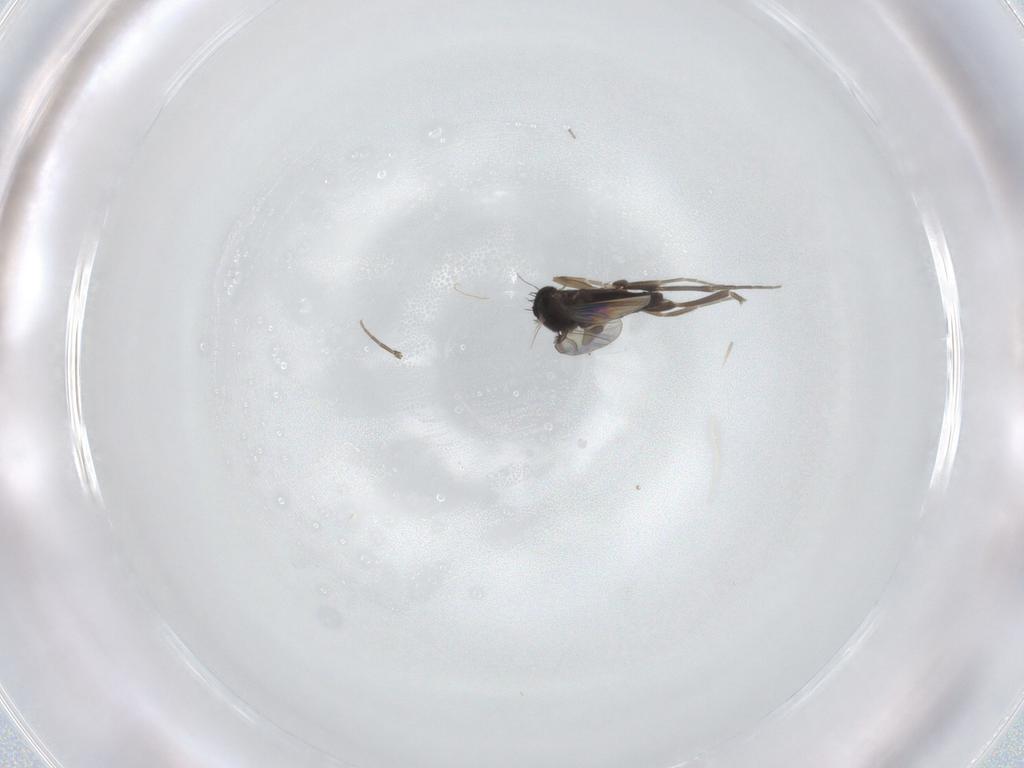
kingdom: Animalia
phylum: Arthropoda
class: Insecta
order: Diptera
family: Phoridae
